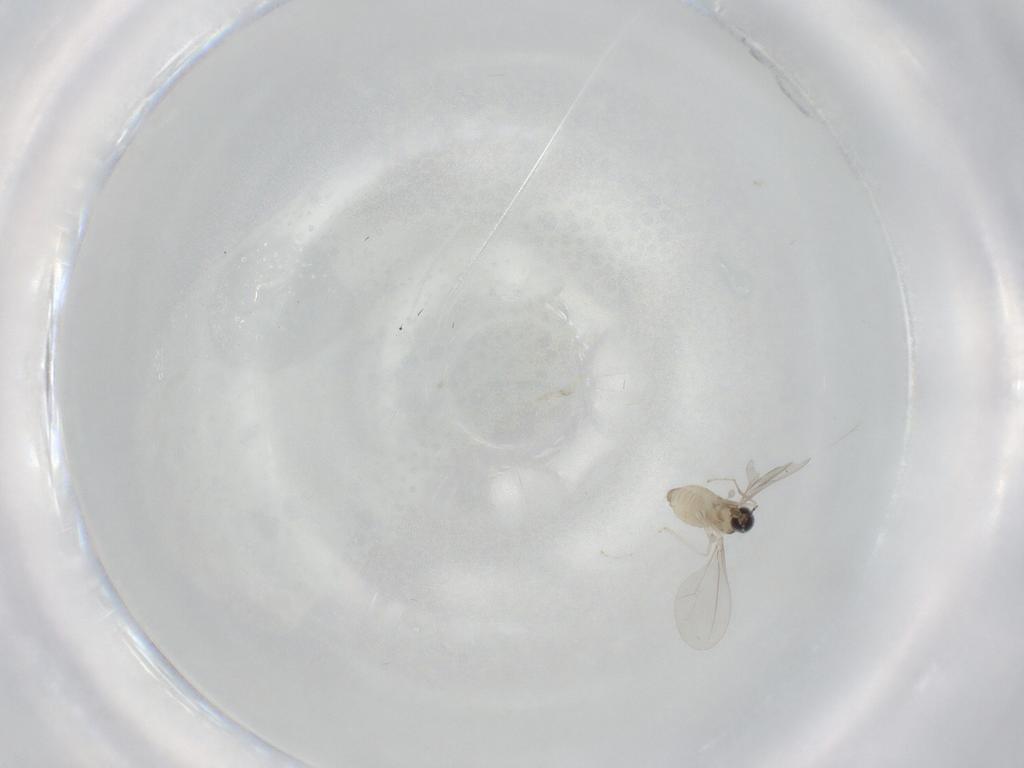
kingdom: Animalia
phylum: Arthropoda
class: Insecta
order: Diptera
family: Cecidomyiidae
